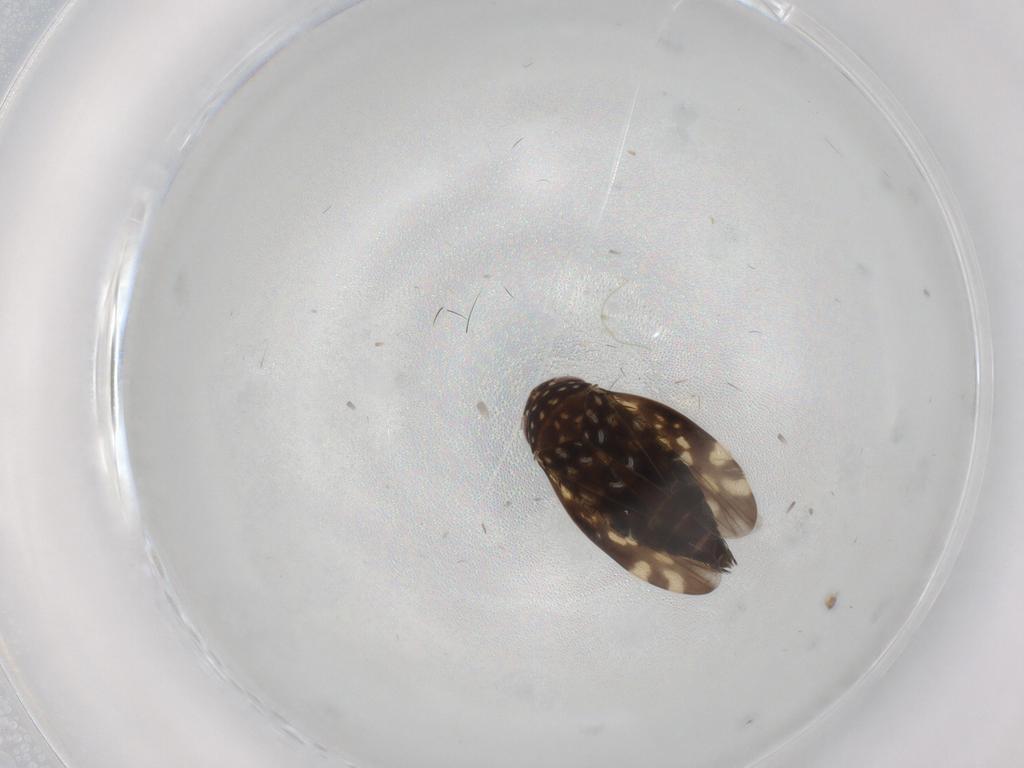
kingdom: Animalia
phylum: Arthropoda
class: Insecta
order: Hemiptera
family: Cicadellidae
